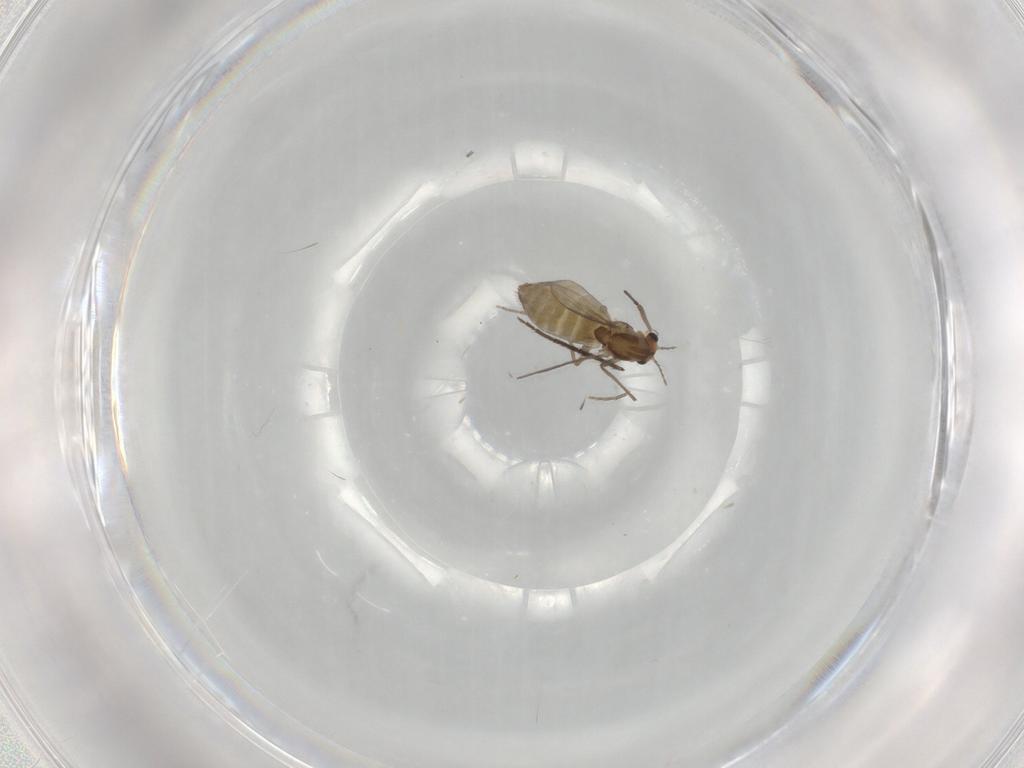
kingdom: Animalia
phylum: Arthropoda
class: Insecta
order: Diptera
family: Chironomidae
